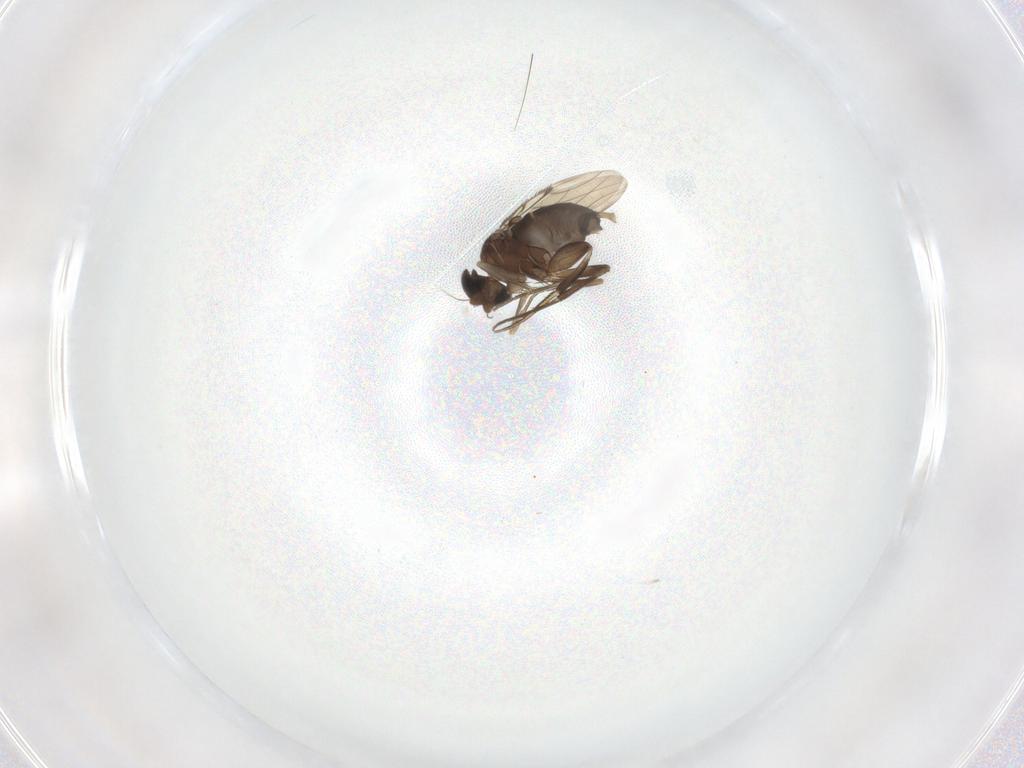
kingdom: Animalia
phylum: Arthropoda
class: Insecta
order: Diptera
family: Phoridae
